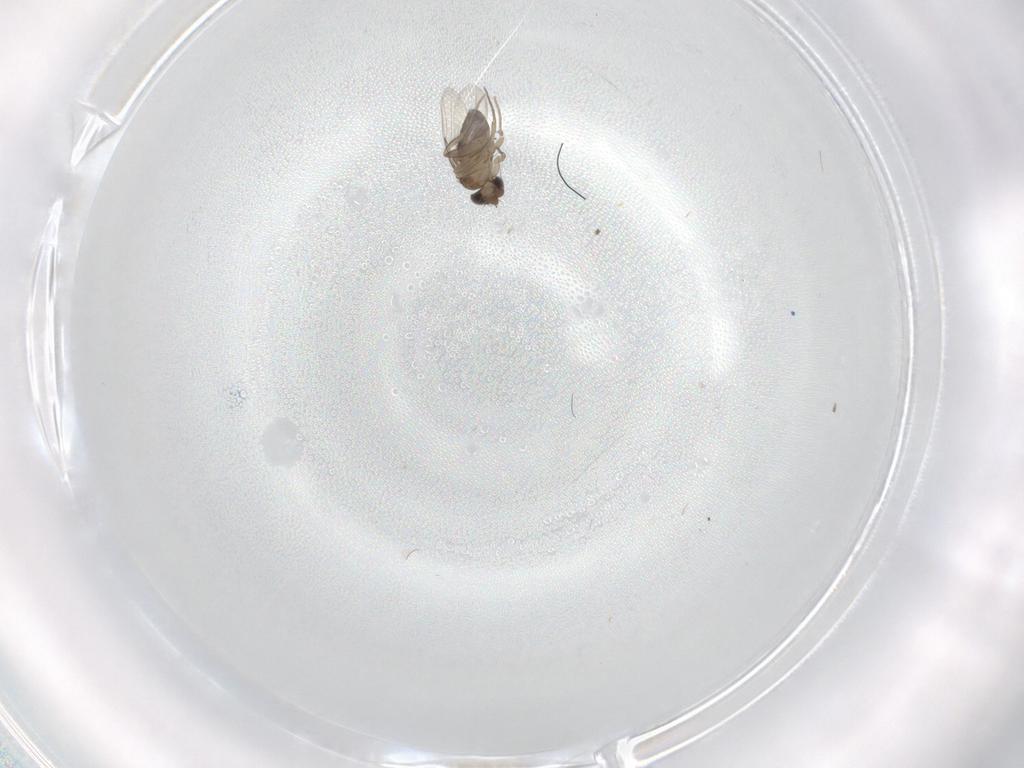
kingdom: Animalia
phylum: Arthropoda
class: Insecta
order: Diptera
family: Phoridae
